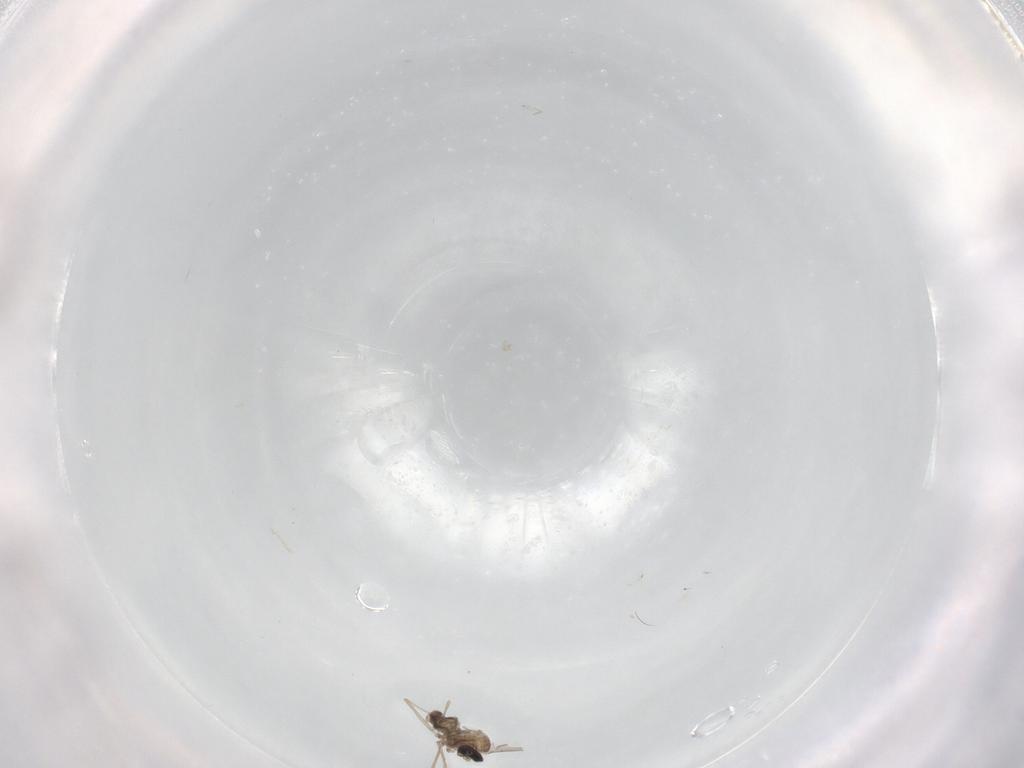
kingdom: Animalia
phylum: Arthropoda
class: Insecta
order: Diptera
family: Cecidomyiidae
